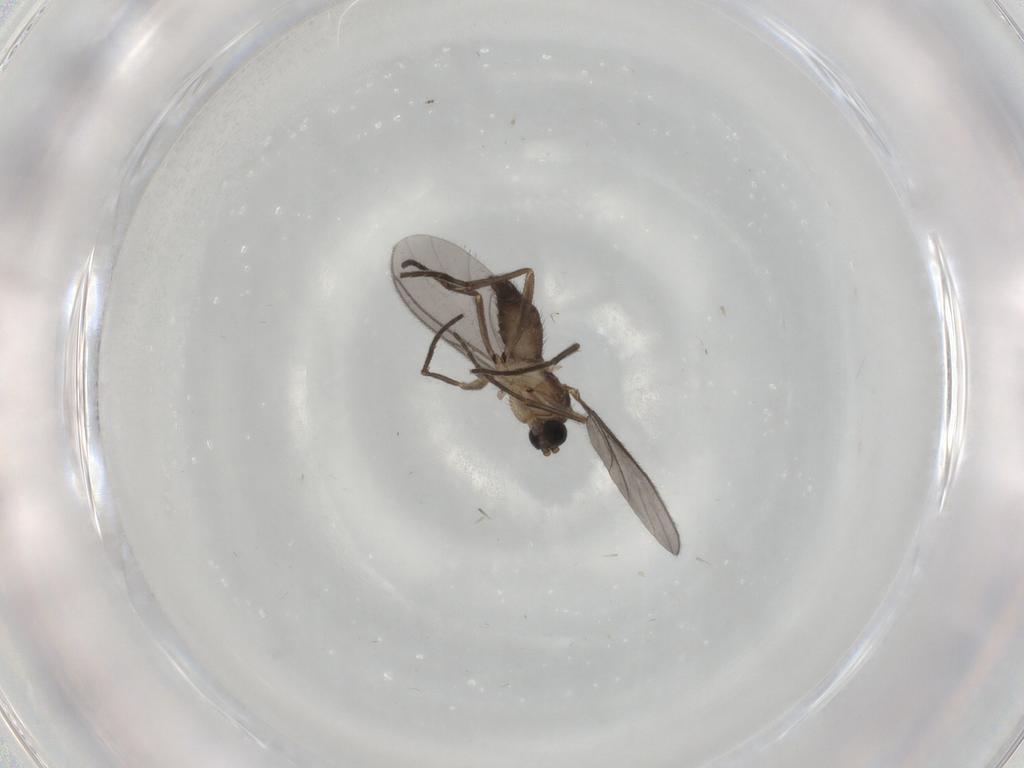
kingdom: Animalia
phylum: Arthropoda
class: Insecta
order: Diptera
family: Sciaridae
